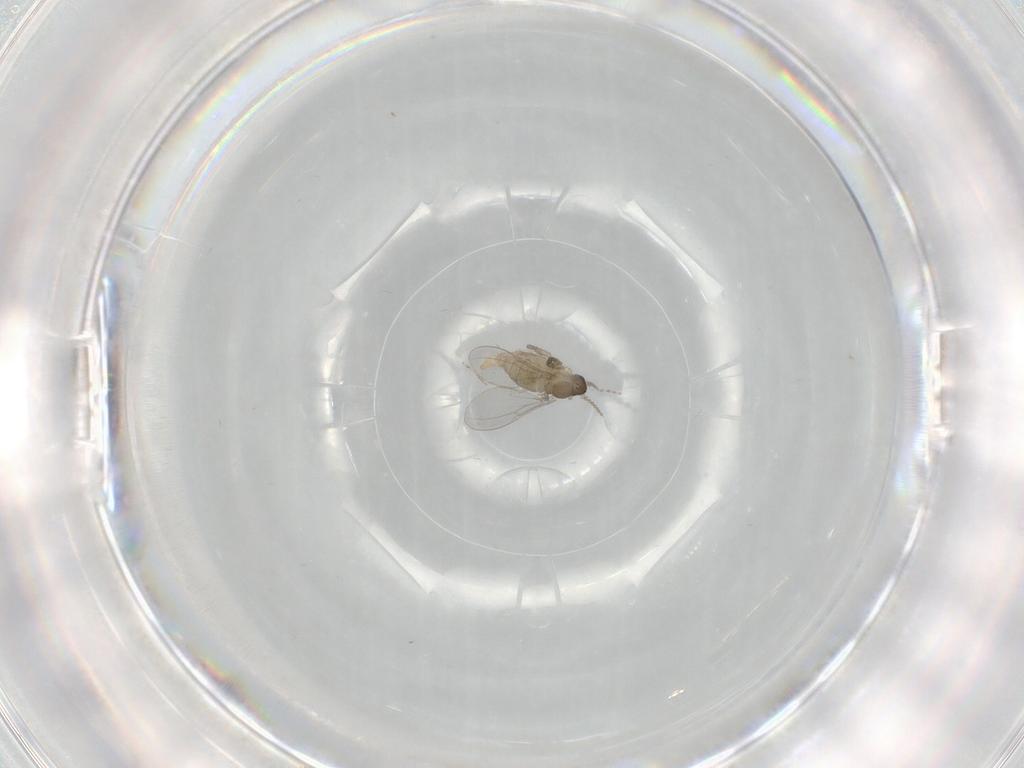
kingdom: Animalia
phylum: Arthropoda
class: Insecta
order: Diptera
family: Cecidomyiidae
